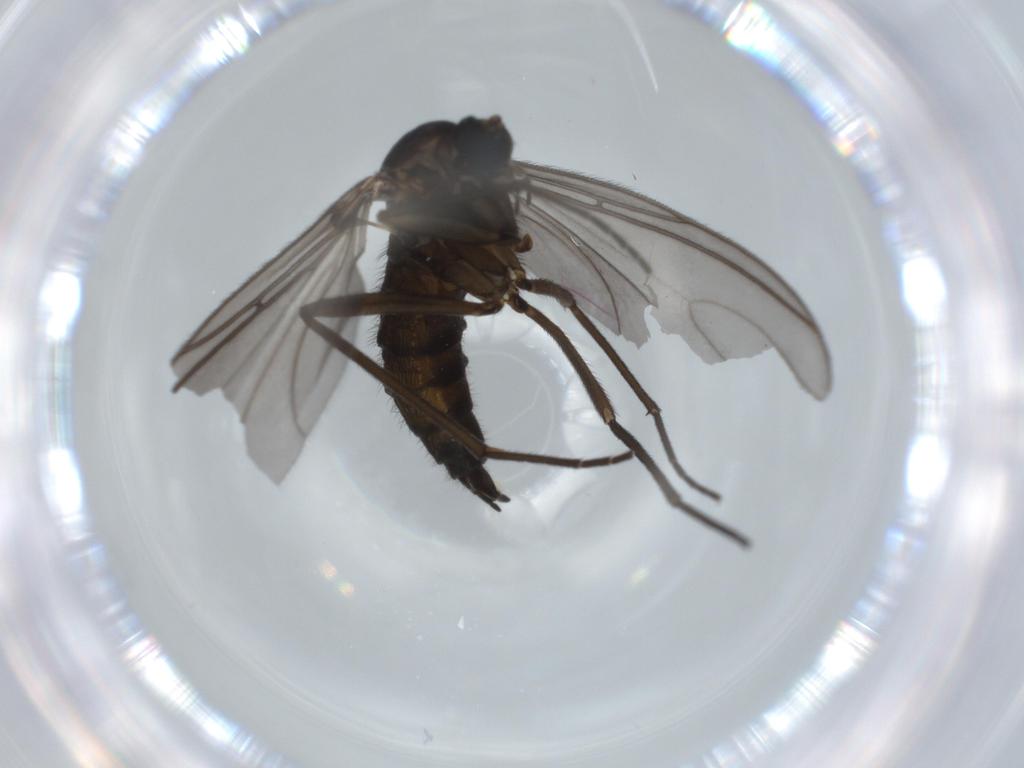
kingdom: Animalia
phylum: Arthropoda
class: Insecta
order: Diptera
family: Sciaridae
